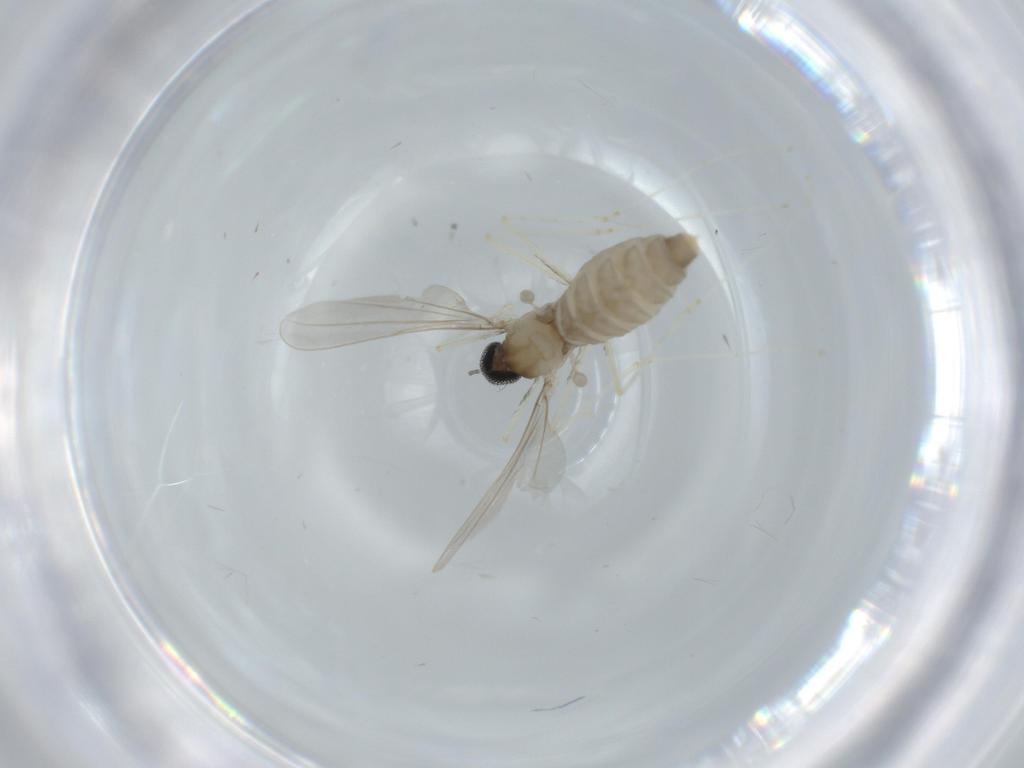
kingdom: Animalia
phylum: Arthropoda
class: Insecta
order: Diptera
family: Cecidomyiidae
